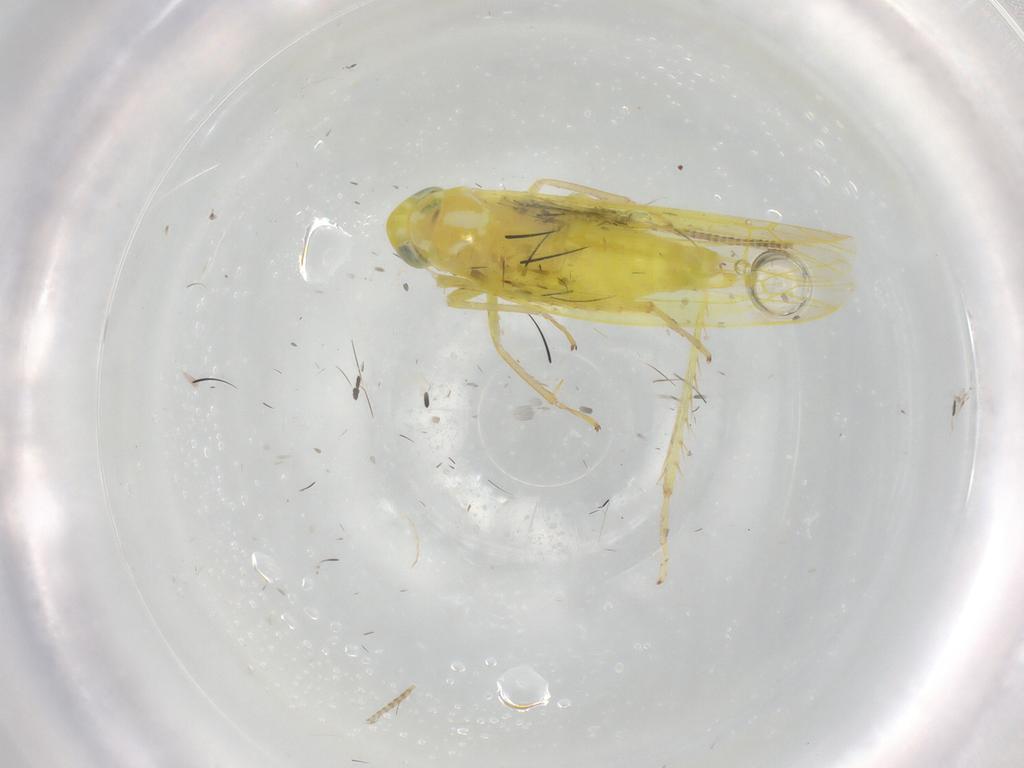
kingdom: Animalia
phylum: Arthropoda
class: Insecta
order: Hemiptera
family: Cicadellidae
